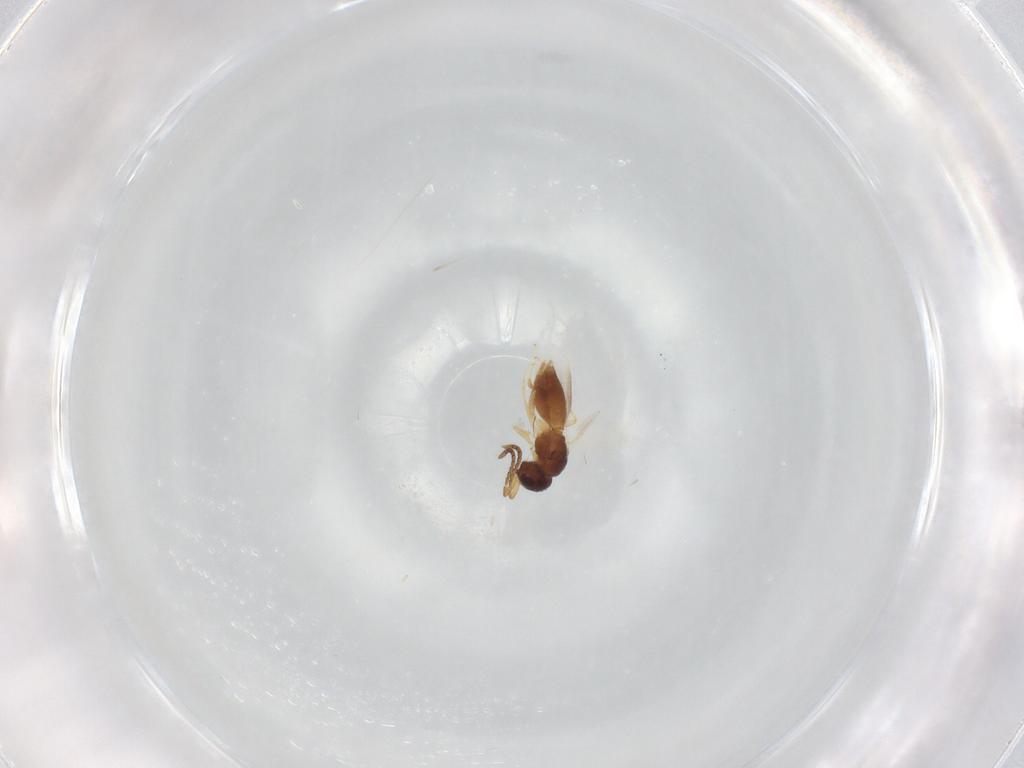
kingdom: Animalia
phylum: Arthropoda
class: Insecta
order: Hymenoptera
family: Megaspilidae
